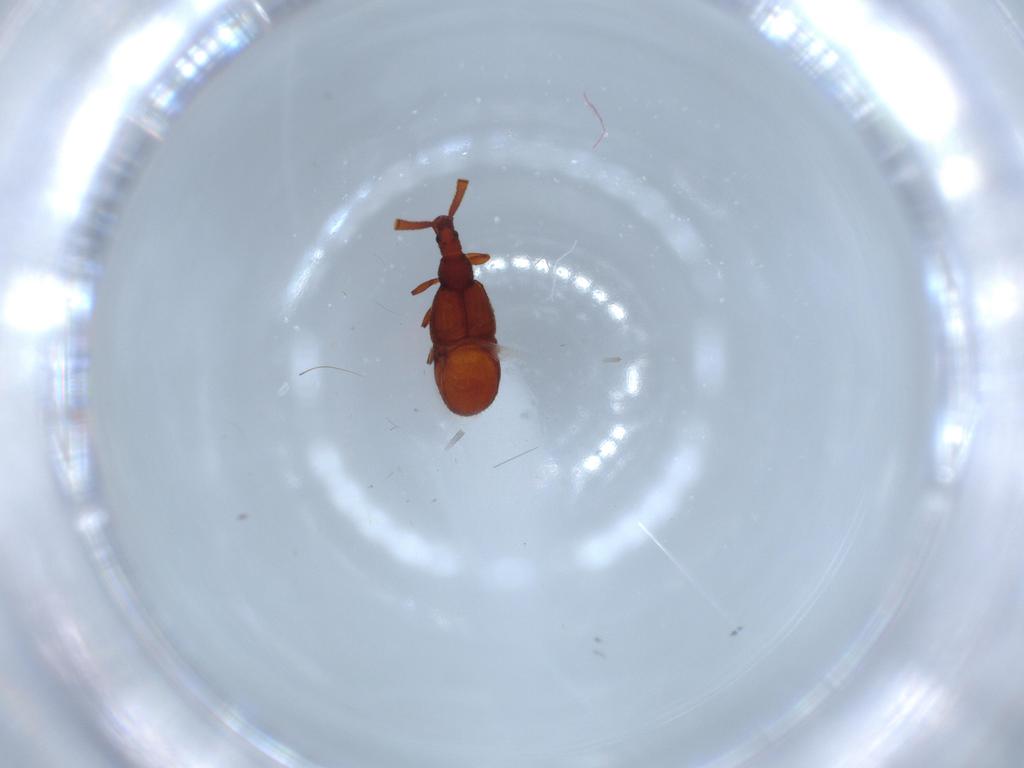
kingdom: Animalia
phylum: Arthropoda
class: Insecta
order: Coleoptera
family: Staphylinidae
